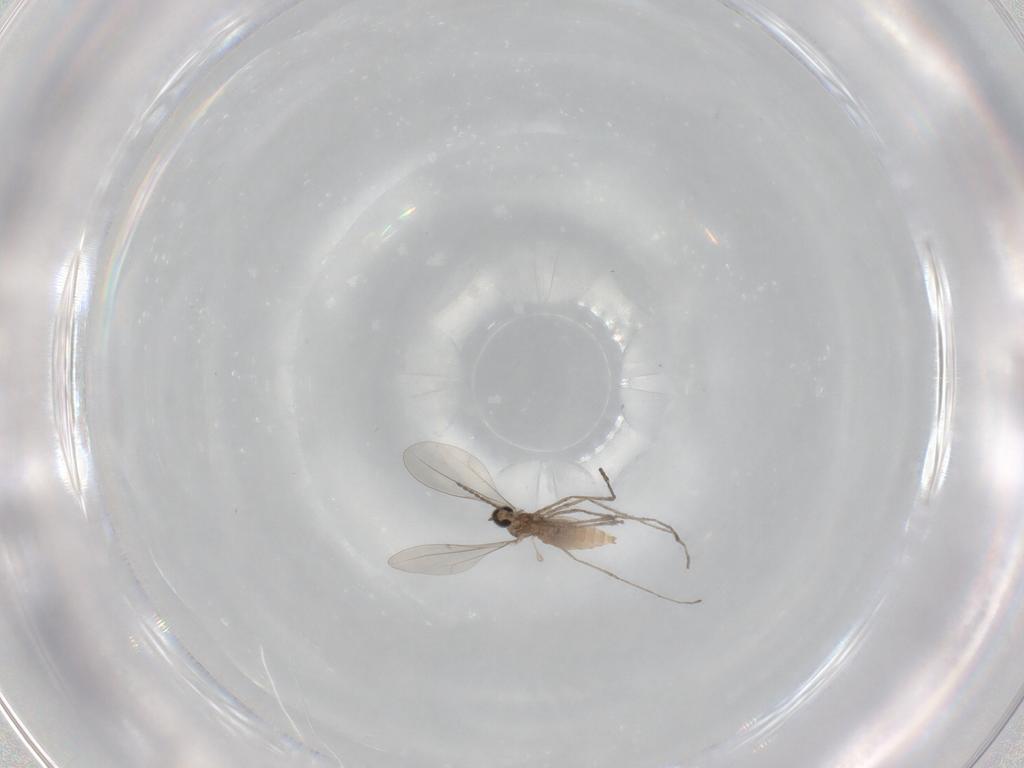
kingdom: Animalia
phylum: Arthropoda
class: Insecta
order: Diptera
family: Cecidomyiidae
